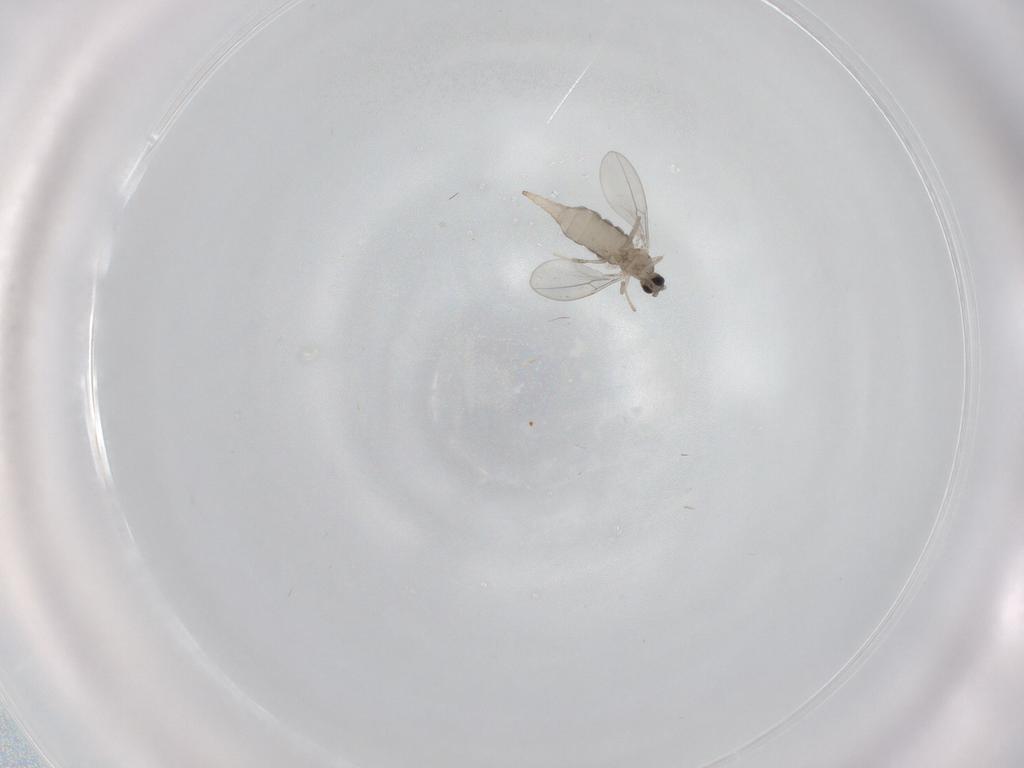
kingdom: Animalia
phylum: Arthropoda
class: Insecta
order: Diptera
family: Cecidomyiidae
